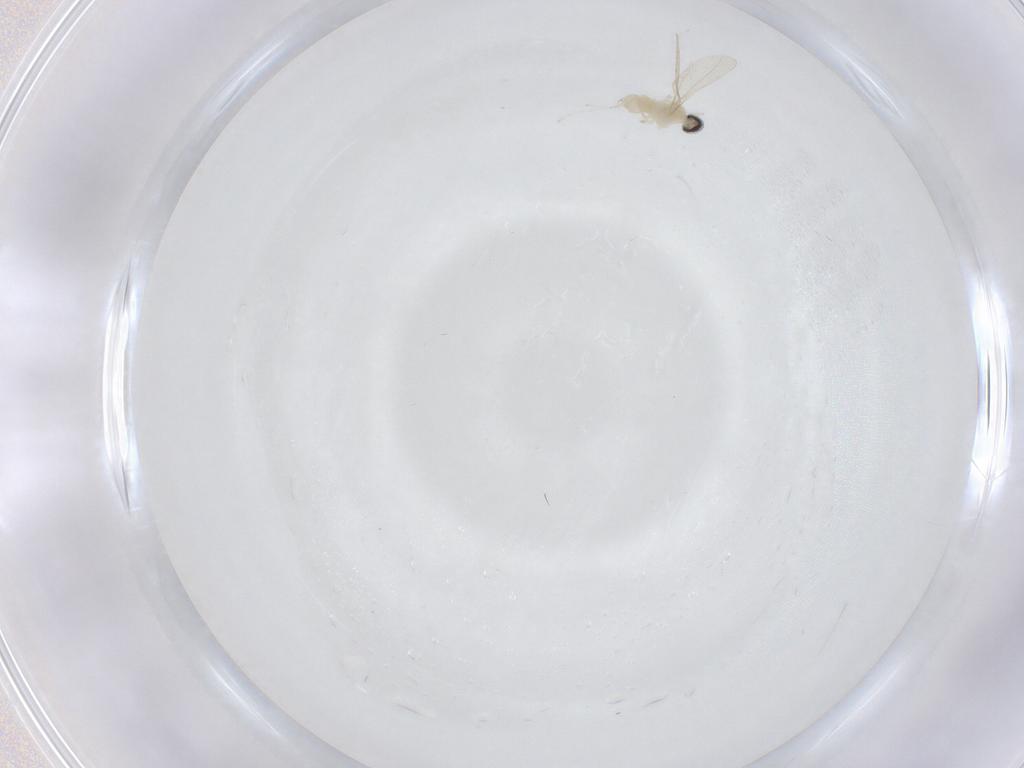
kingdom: Animalia
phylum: Arthropoda
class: Insecta
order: Diptera
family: Cecidomyiidae
